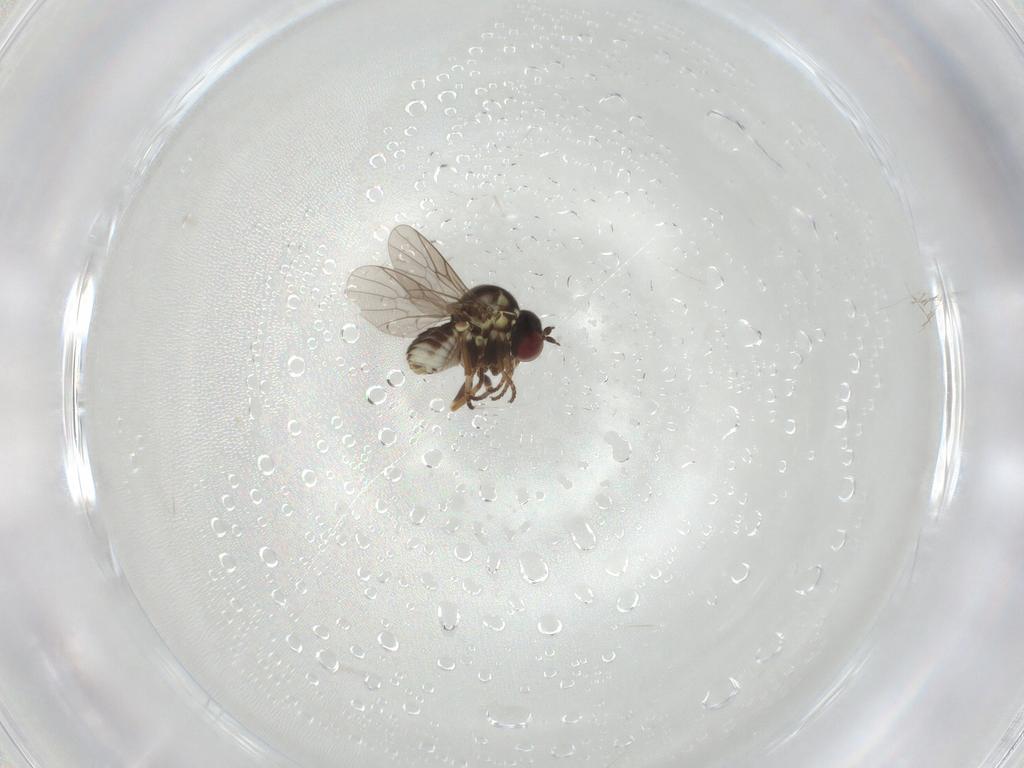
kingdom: Animalia
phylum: Arthropoda
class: Insecta
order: Diptera
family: Bombyliidae
